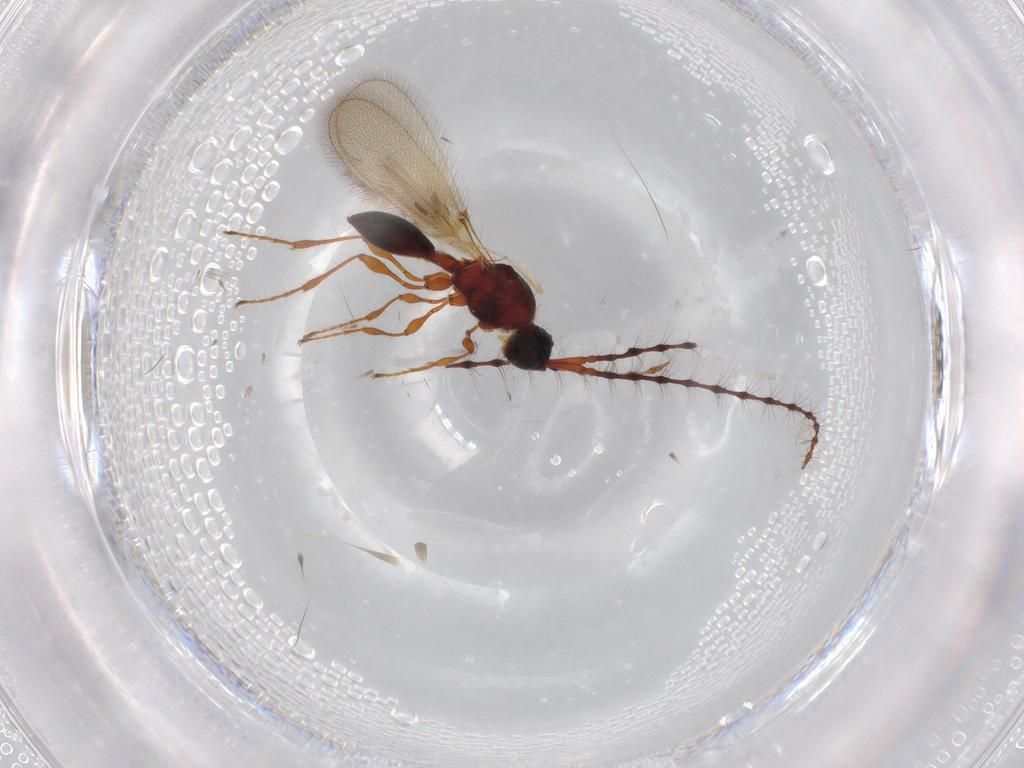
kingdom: Animalia
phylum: Arthropoda
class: Insecta
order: Hymenoptera
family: Diapriidae
